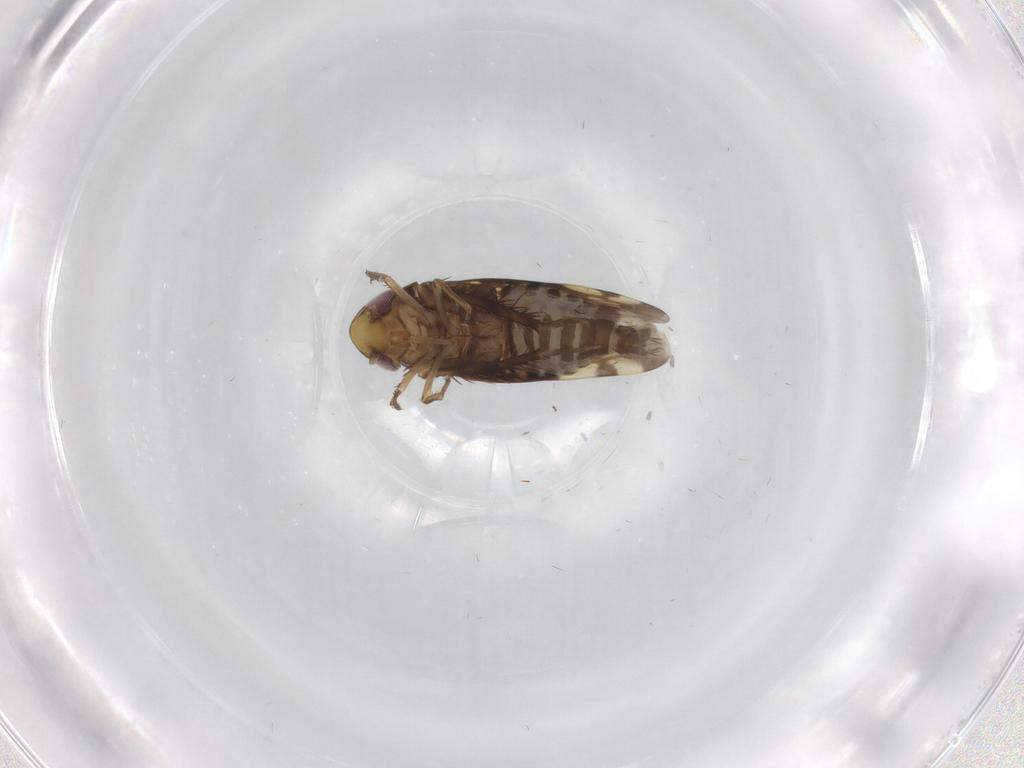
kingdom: Animalia
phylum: Arthropoda
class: Insecta
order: Hemiptera
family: Cicadellidae
